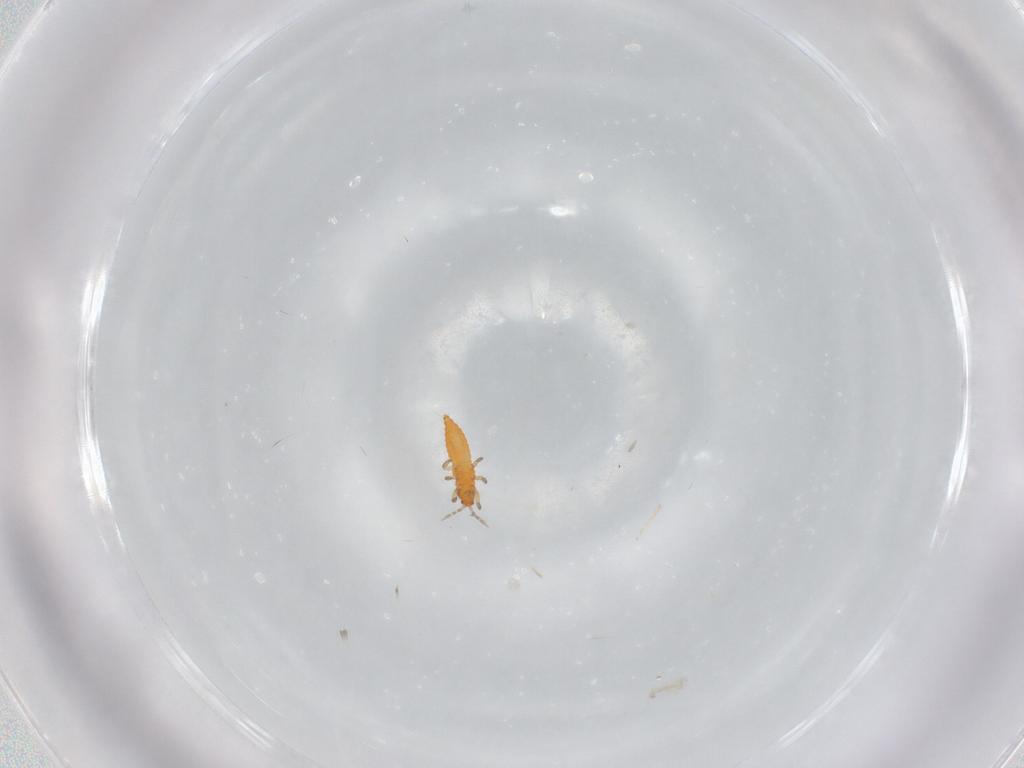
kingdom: Animalia
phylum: Arthropoda
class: Insecta
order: Thysanoptera
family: Aeolothripidae
